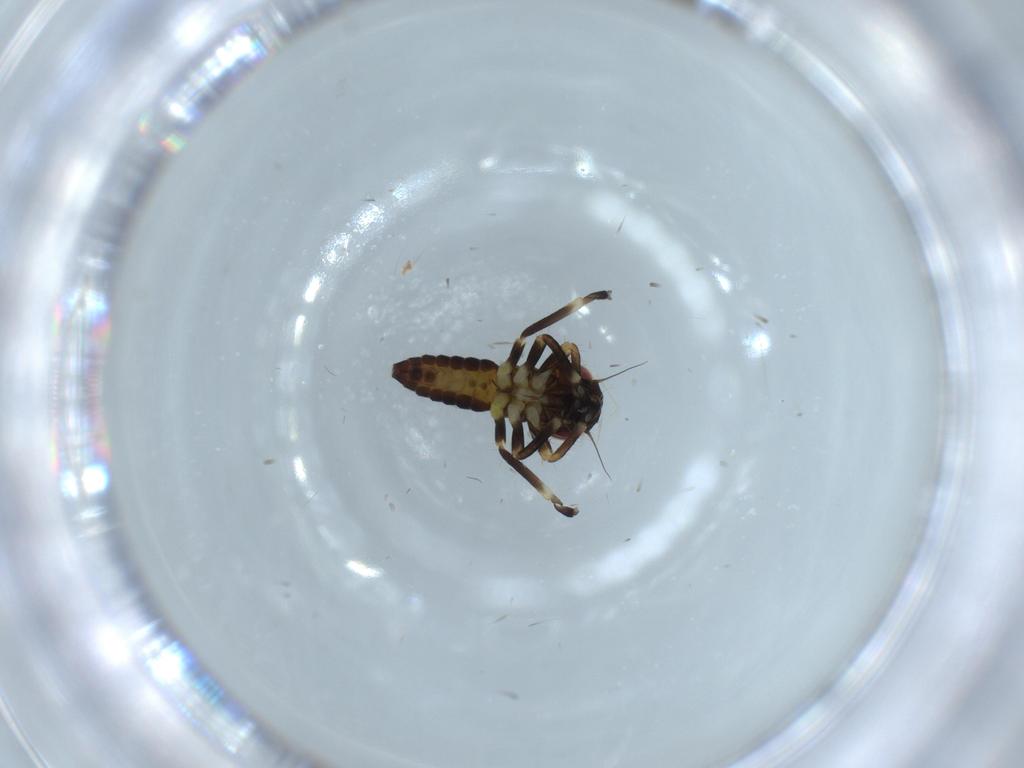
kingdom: Animalia
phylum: Arthropoda
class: Insecta
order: Hemiptera
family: Cicadellidae
